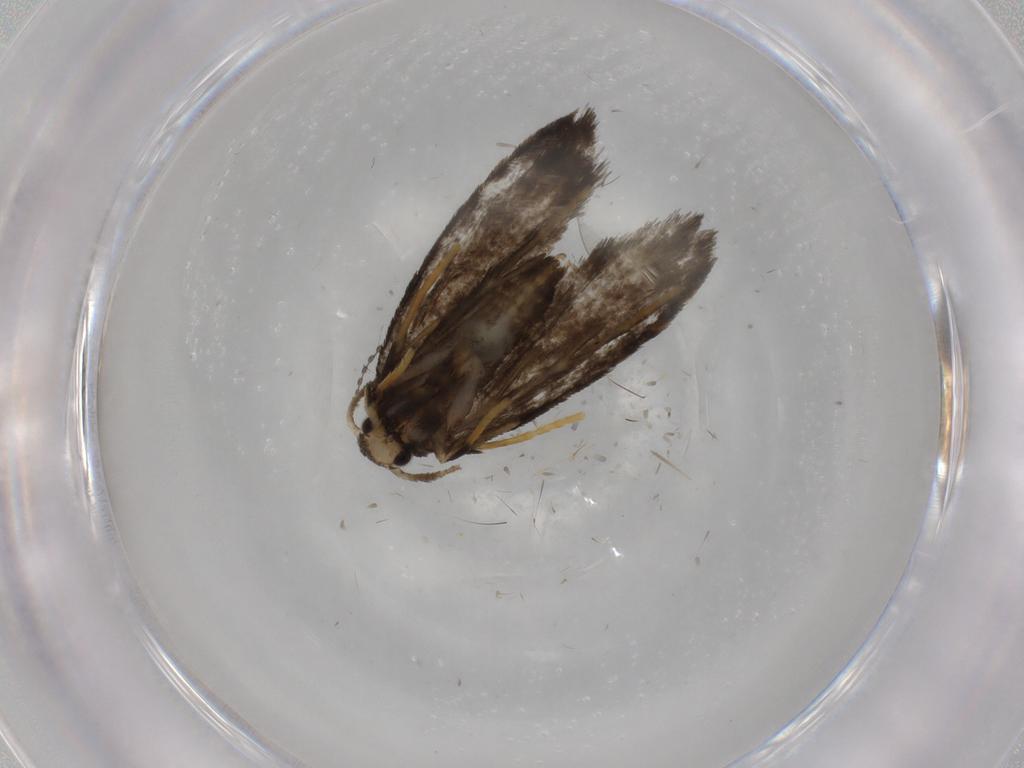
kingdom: Animalia
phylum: Arthropoda
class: Insecta
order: Lepidoptera
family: Psychidae
